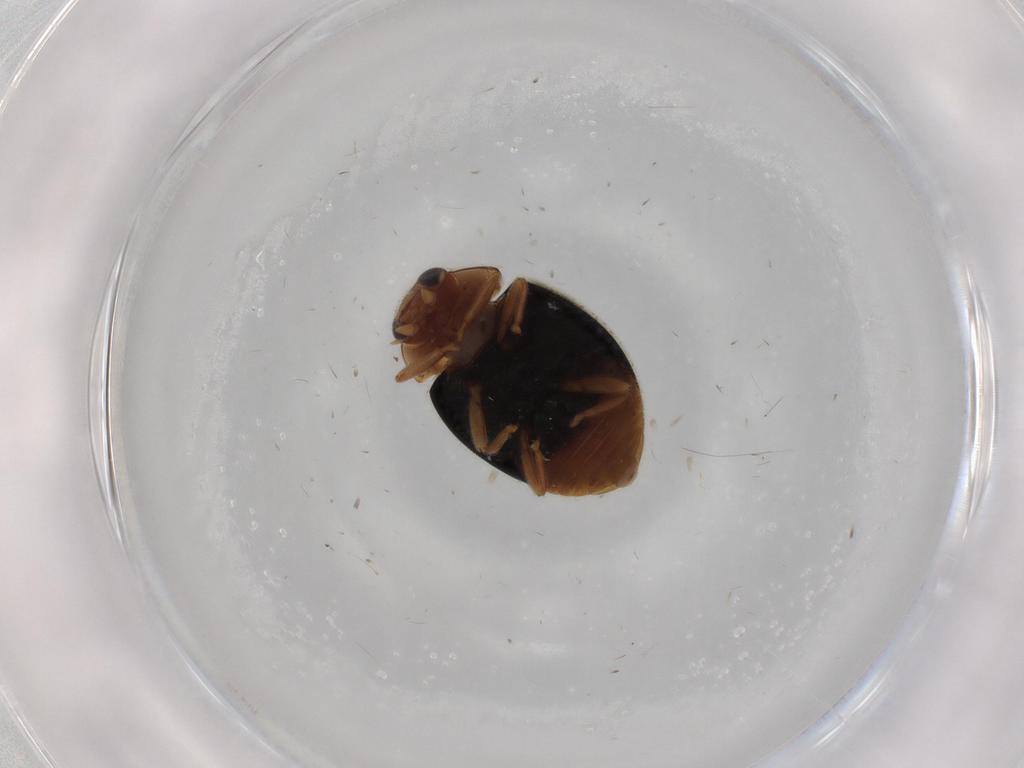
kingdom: Animalia
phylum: Arthropoda
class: Insecta
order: Coleoptera
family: Coccinellidae
